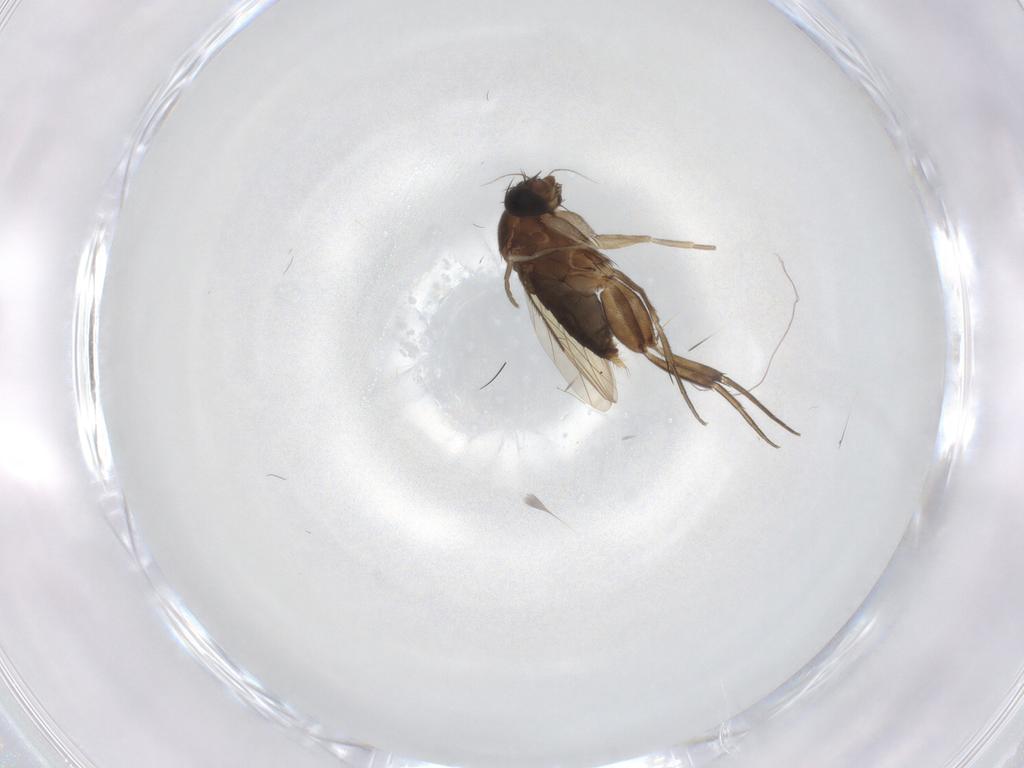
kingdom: Animalia
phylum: Arthropoda
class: Insecta
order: Diptera
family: Phoridae
